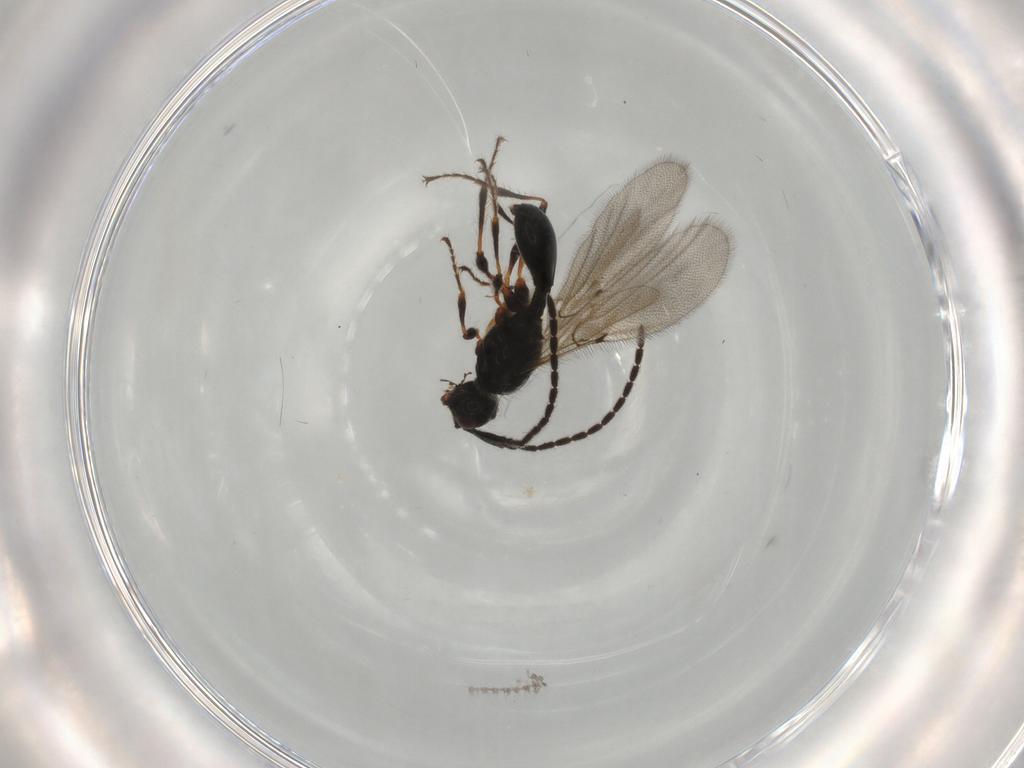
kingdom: Animalia
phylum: Arthropoda
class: Insecta
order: Hymenoptera
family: Diapriidae
